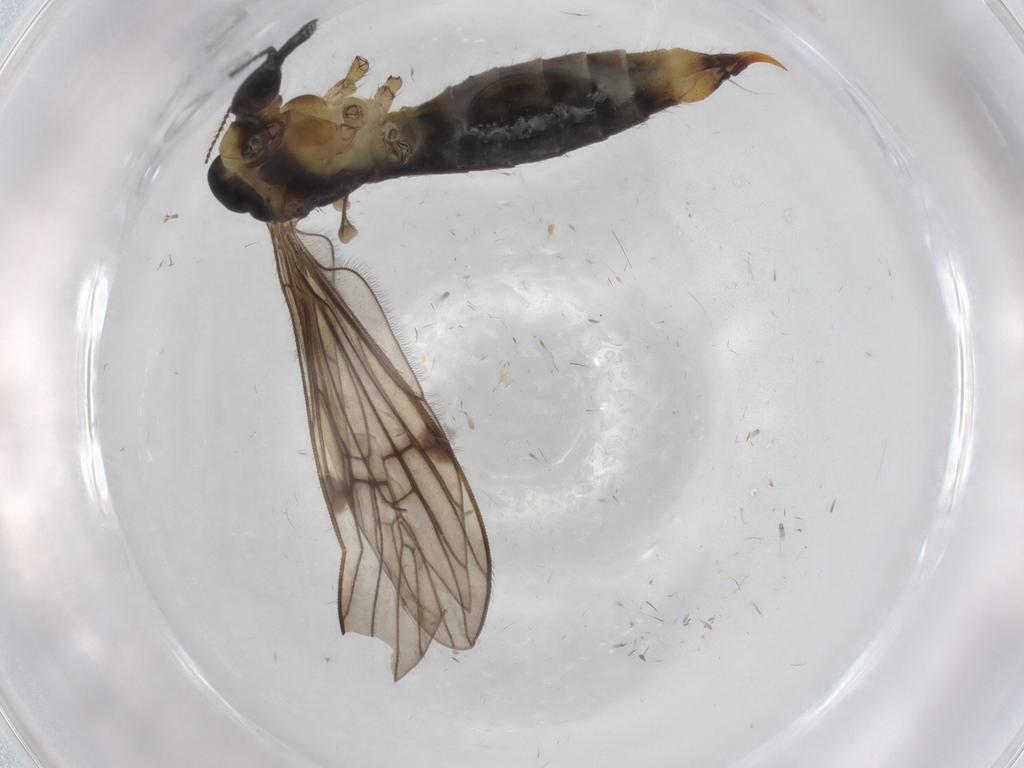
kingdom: Animalia
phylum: Arthropoda
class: Insecta
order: Diptera
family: Limoniidae
